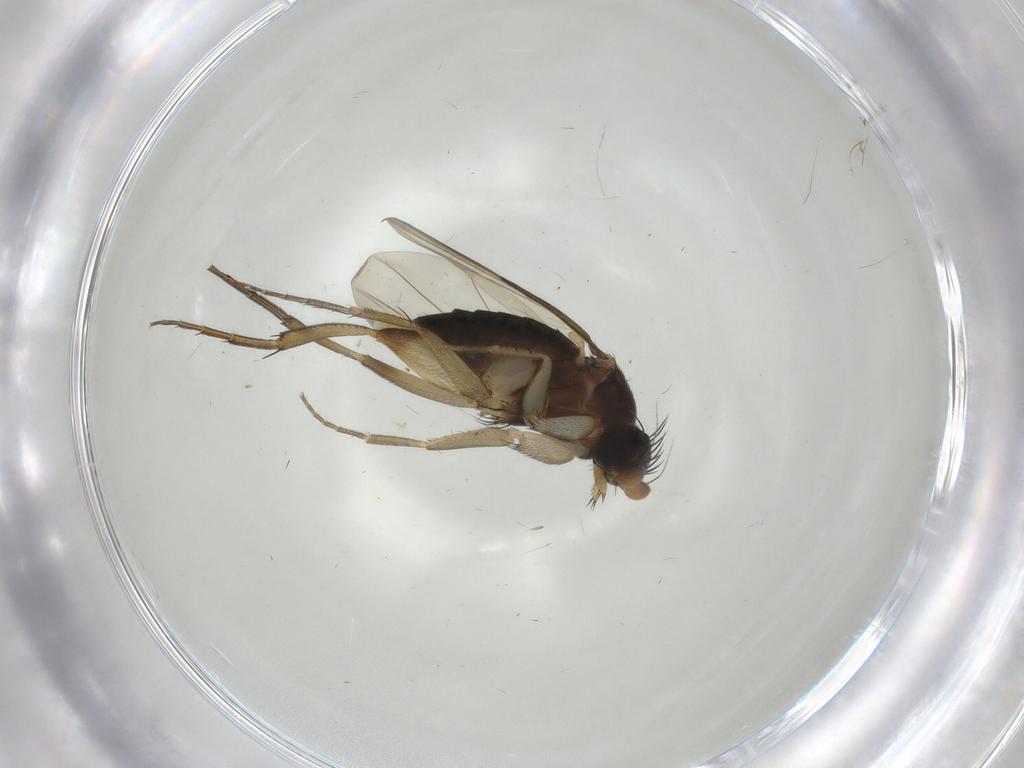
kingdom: Animalia
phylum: Arthropoda
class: Insecta
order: Diptera
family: Phoridae
